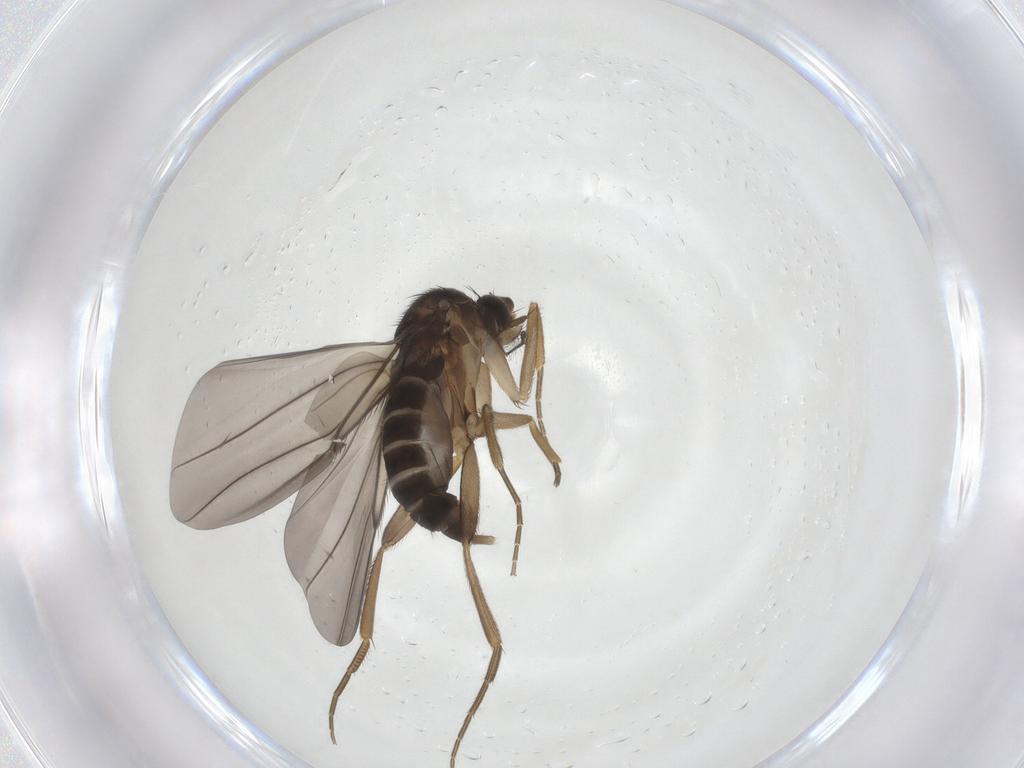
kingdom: Animalia
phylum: Arthropoda
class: Insecta
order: Diptera
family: Phoridae
